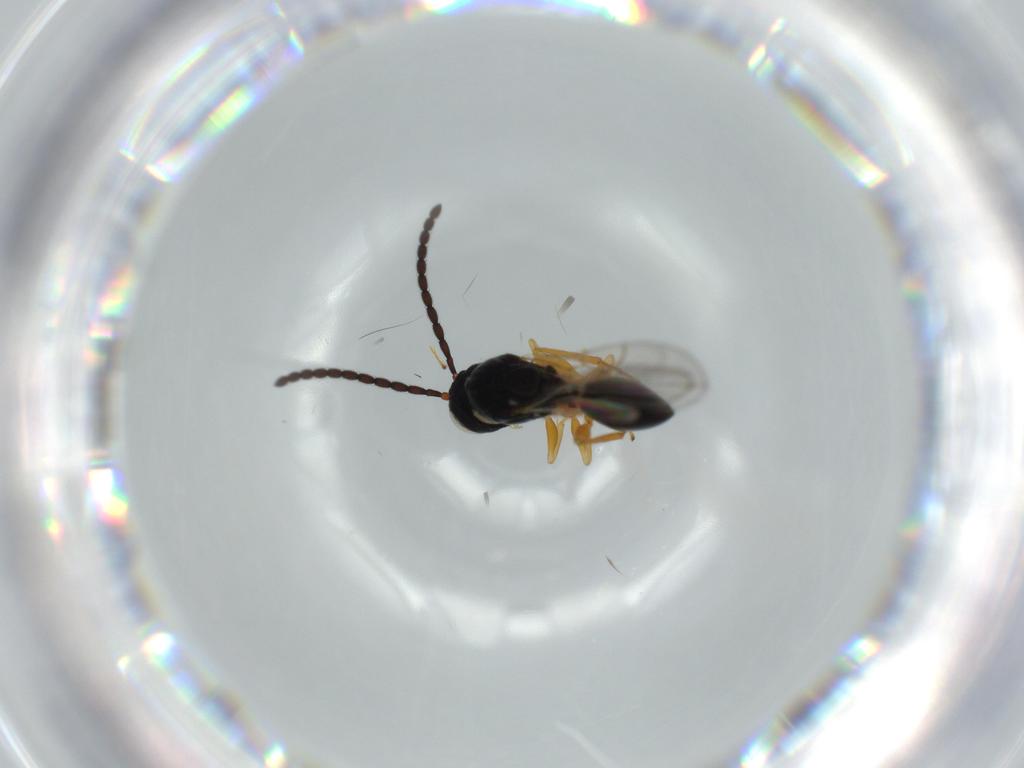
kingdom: Animalia
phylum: Arthropoda
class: Insecta
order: Hymenoptera
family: Figitidae
